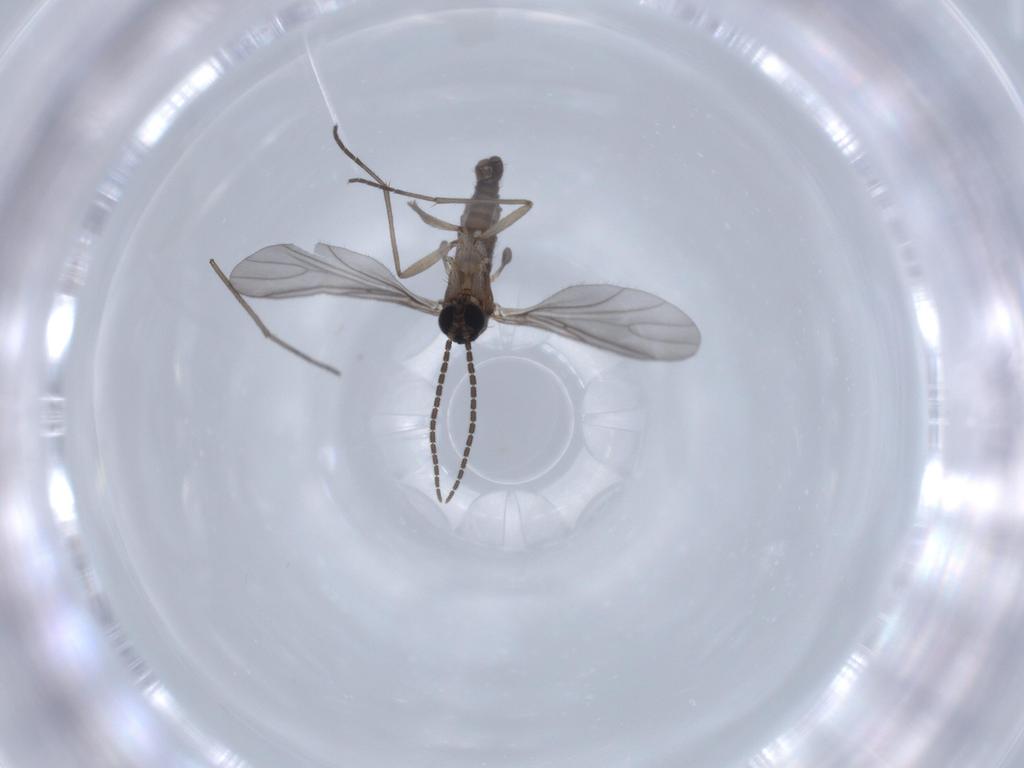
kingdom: Animalia
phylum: Arthropoda
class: Insecta
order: Diptera
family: Sciaridae
